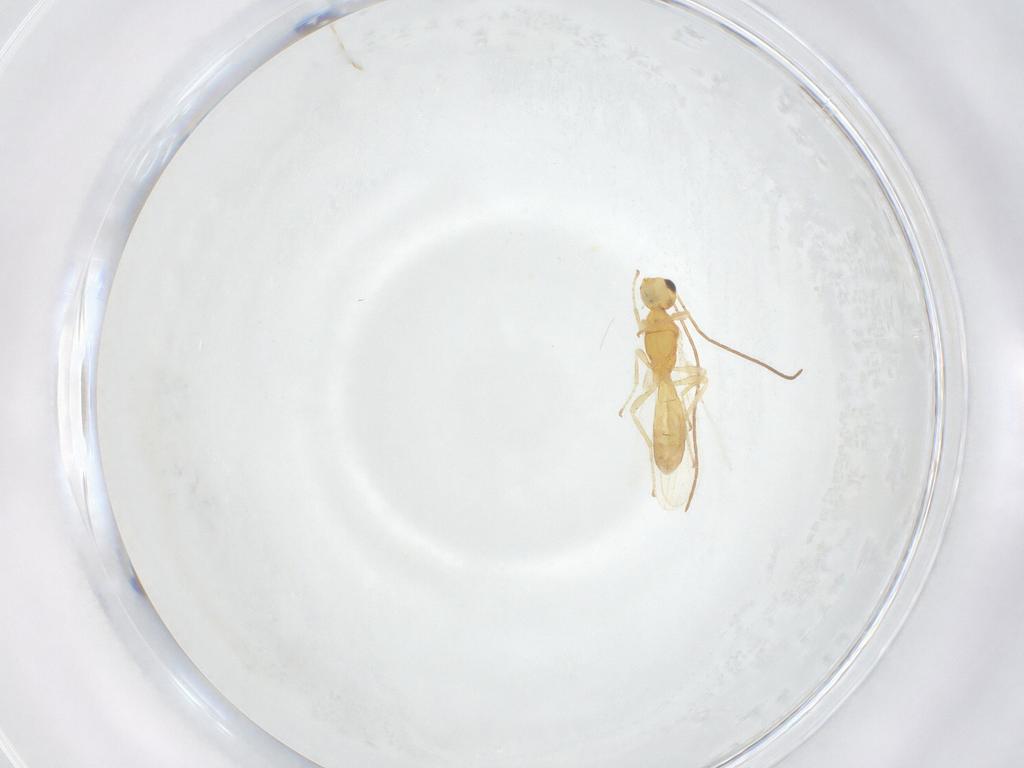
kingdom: Animalia
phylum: Arthropoda
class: Insecta
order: Hymenoptera
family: Braconidae
